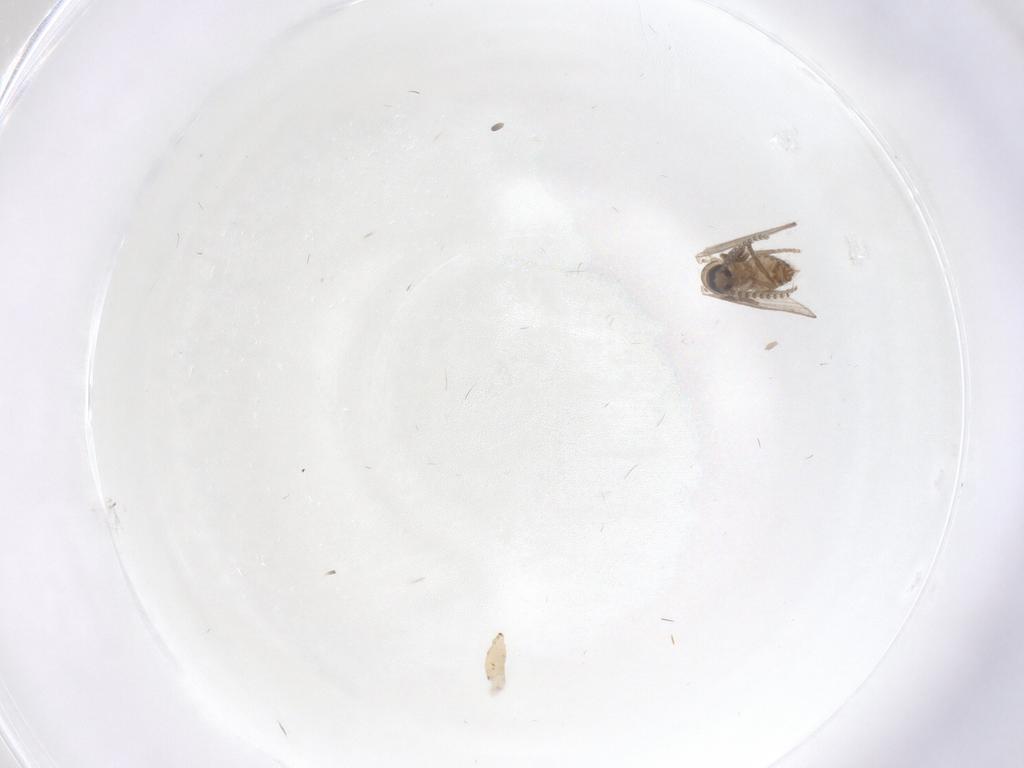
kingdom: Animalia
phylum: Arthropoda
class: Insecta
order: Diptera
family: Psychodidae
